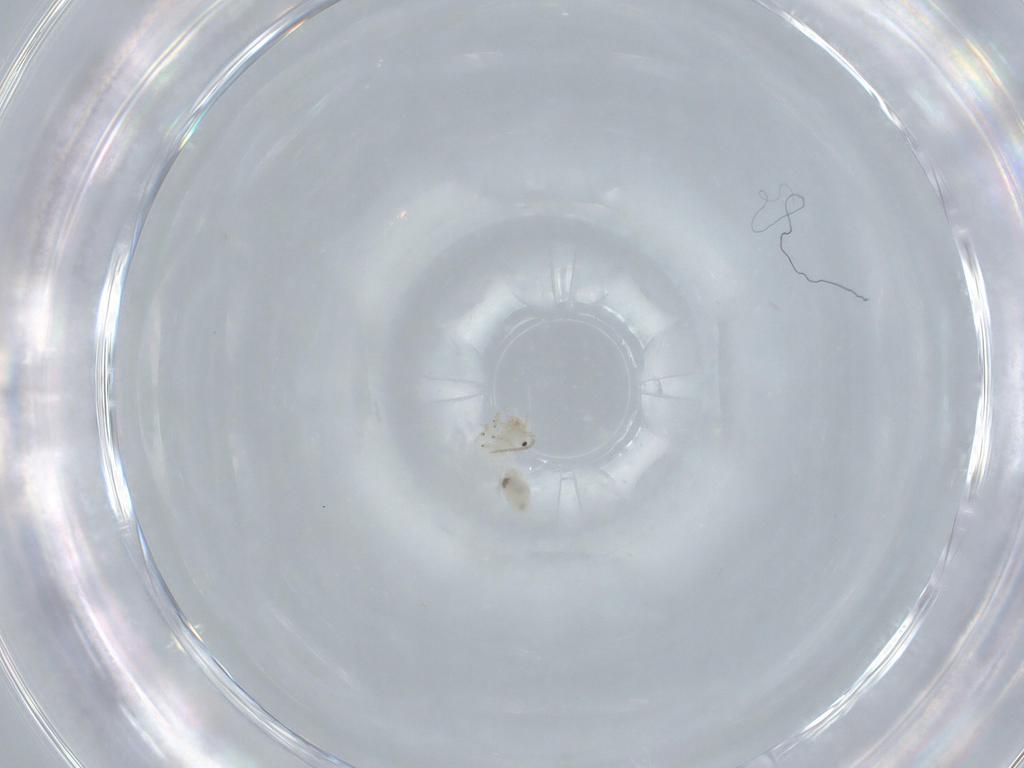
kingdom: Animalia
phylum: Arthropoda
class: Insecta
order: Psocodea
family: Caeciliusidae
